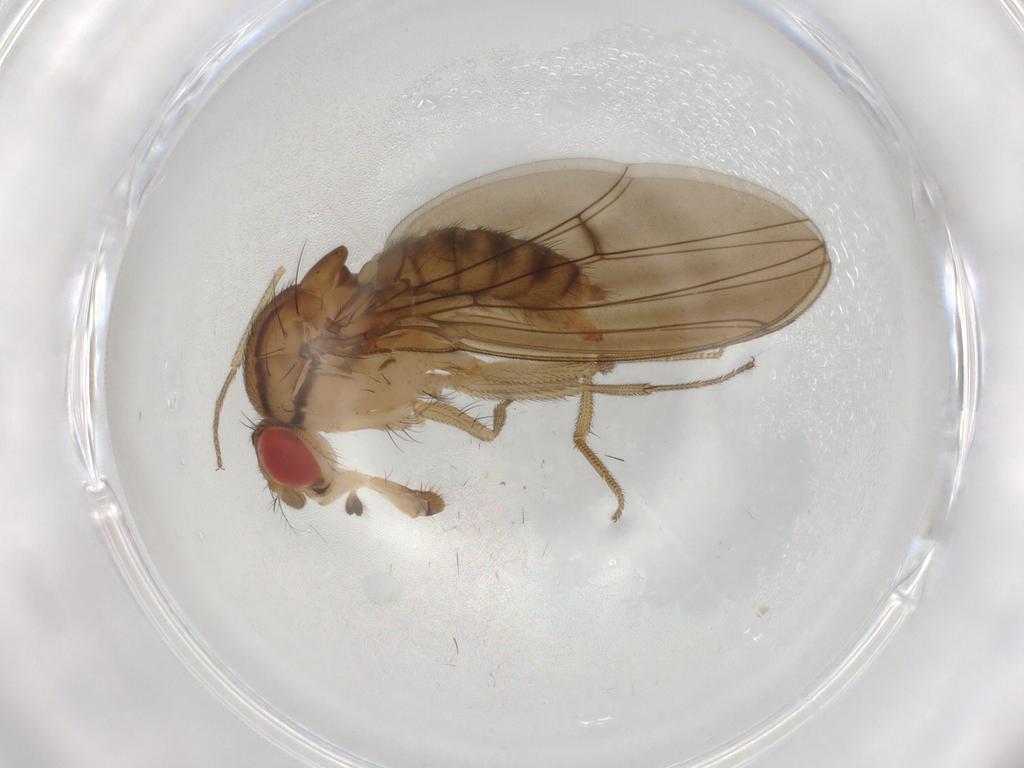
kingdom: Animalia
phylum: Arthropoda
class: Insecta
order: Diptera
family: Drosophilidae
